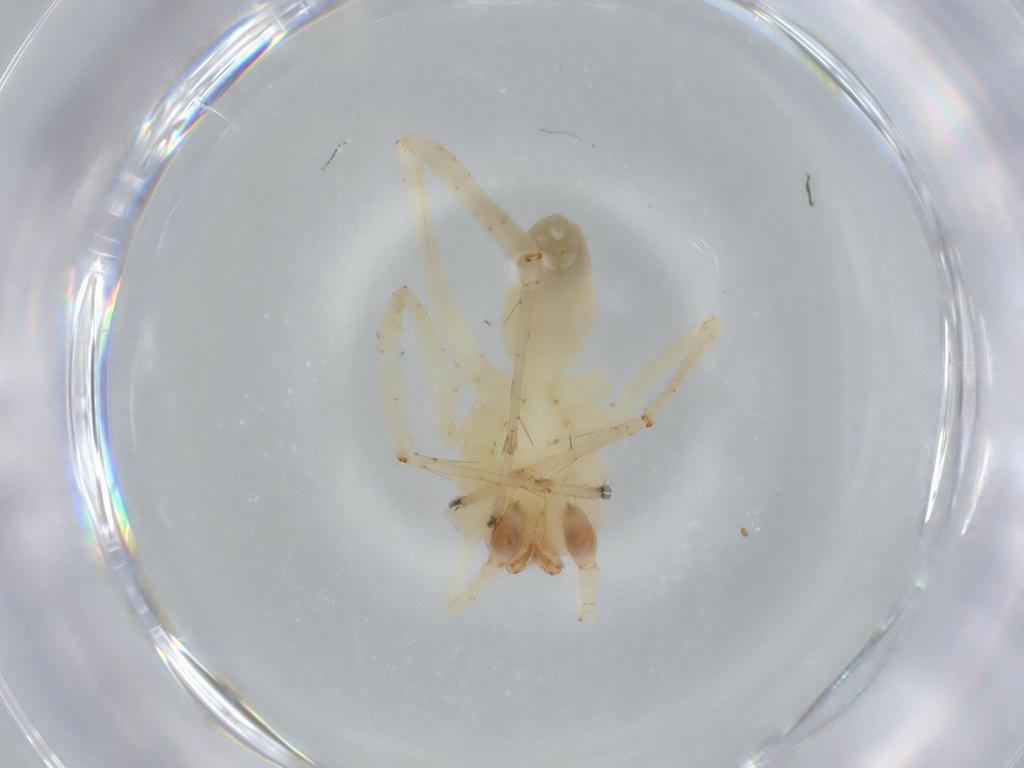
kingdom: Animalia
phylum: Arthropoda
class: Arachnida
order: Araneae
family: Anyphaenidae
